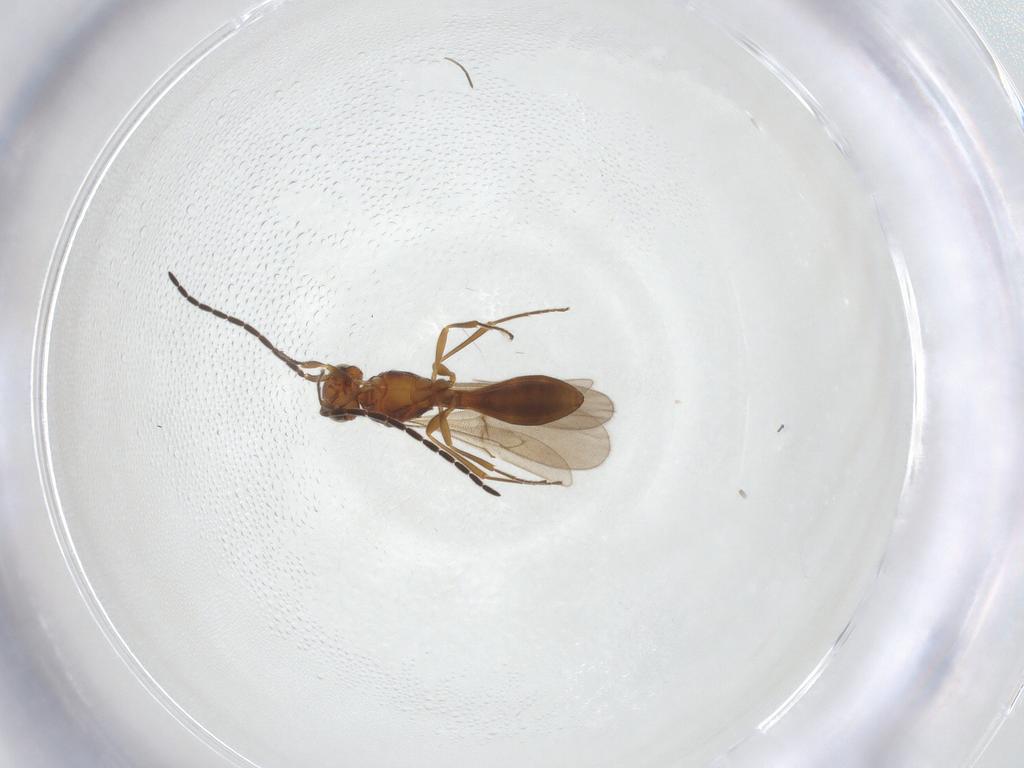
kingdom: Animalia
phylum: Arthropoda
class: Insecta
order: Hymenoptera
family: Scelionidae
